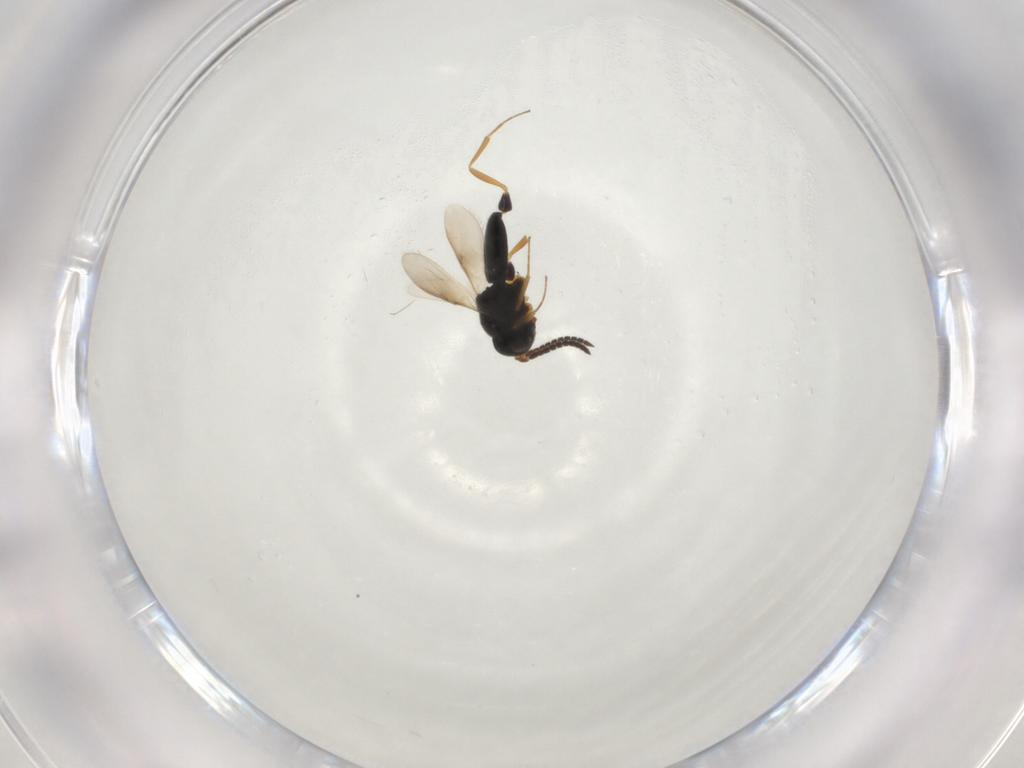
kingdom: Animalia
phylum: Arthropoda
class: Insecta
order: Hymenoptera
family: Scelionidae
